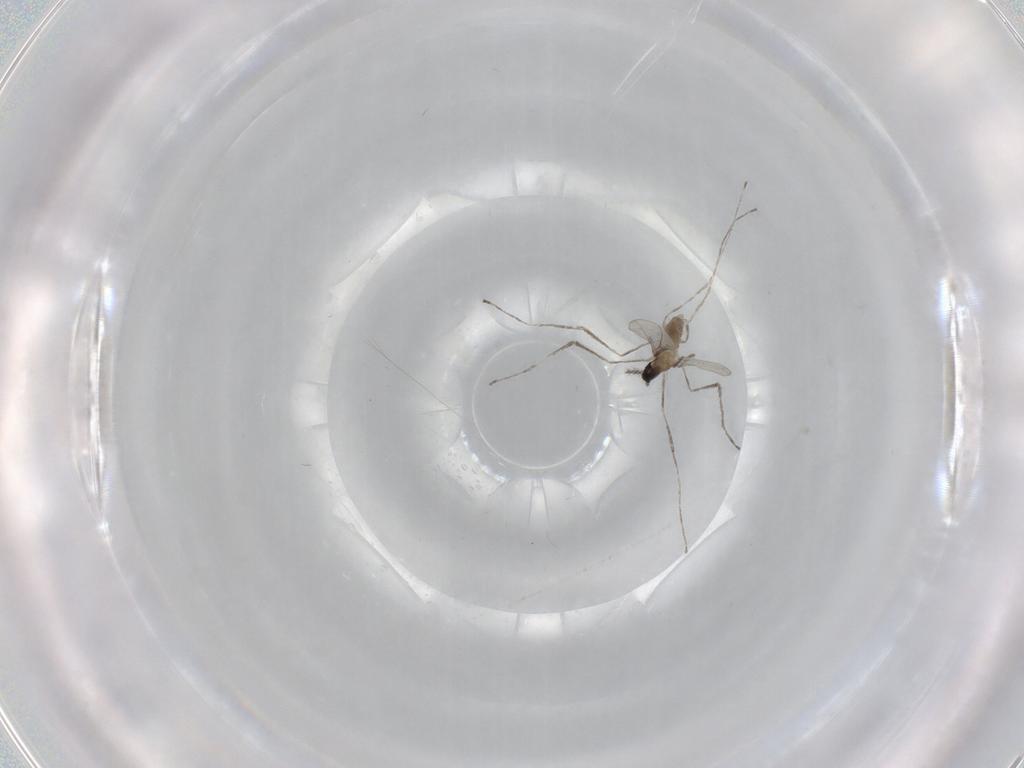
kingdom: Animalia
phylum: Arthropoda
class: Insecta
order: Diptera
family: Cecidomyiidae
